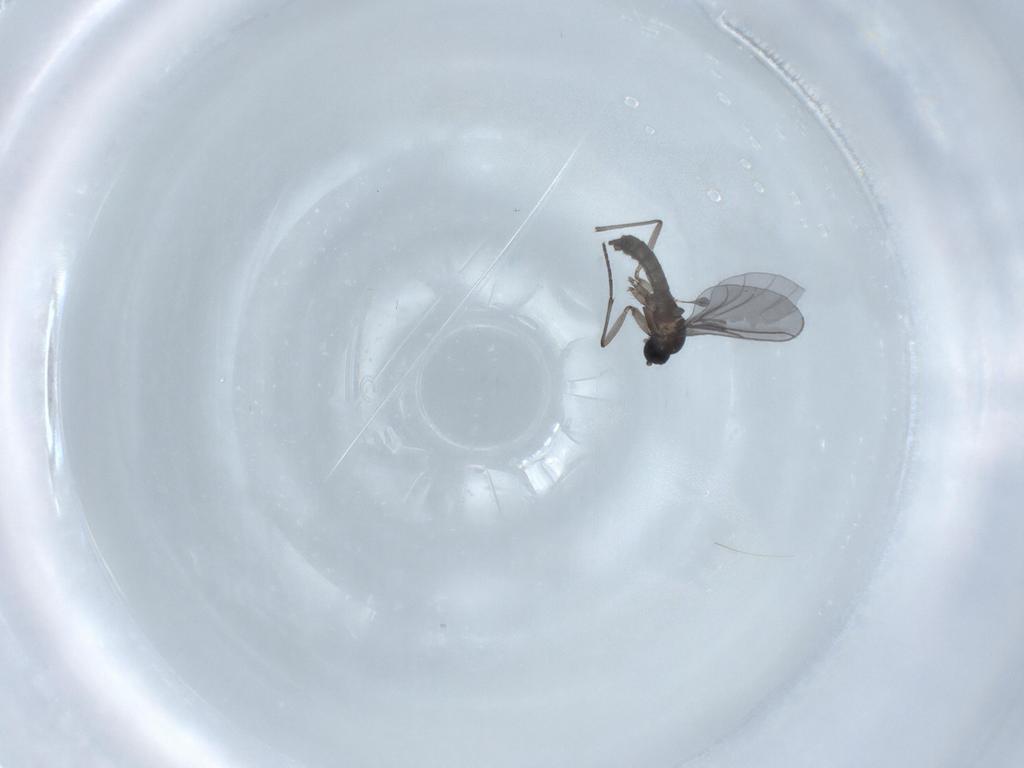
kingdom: Animalia
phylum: Arthropoda
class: Insecta
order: Diptera
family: Sciaridae
